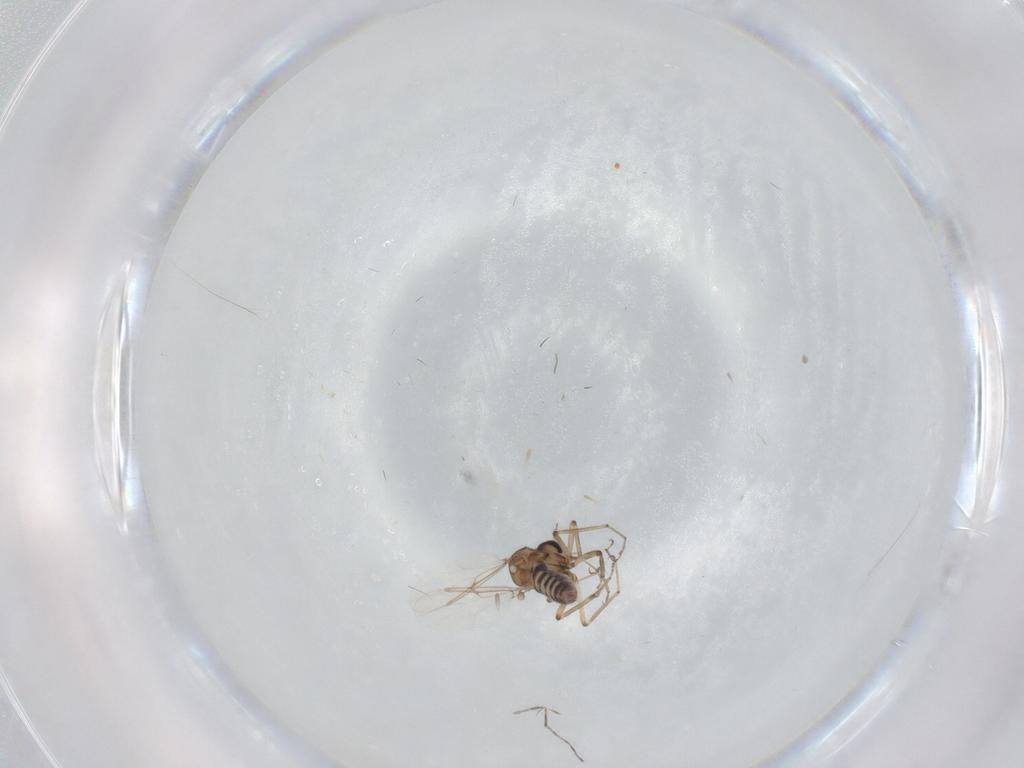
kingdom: Animalia
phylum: Arthropoda
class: Insecta
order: Diptera
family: Ceratopogonidae
